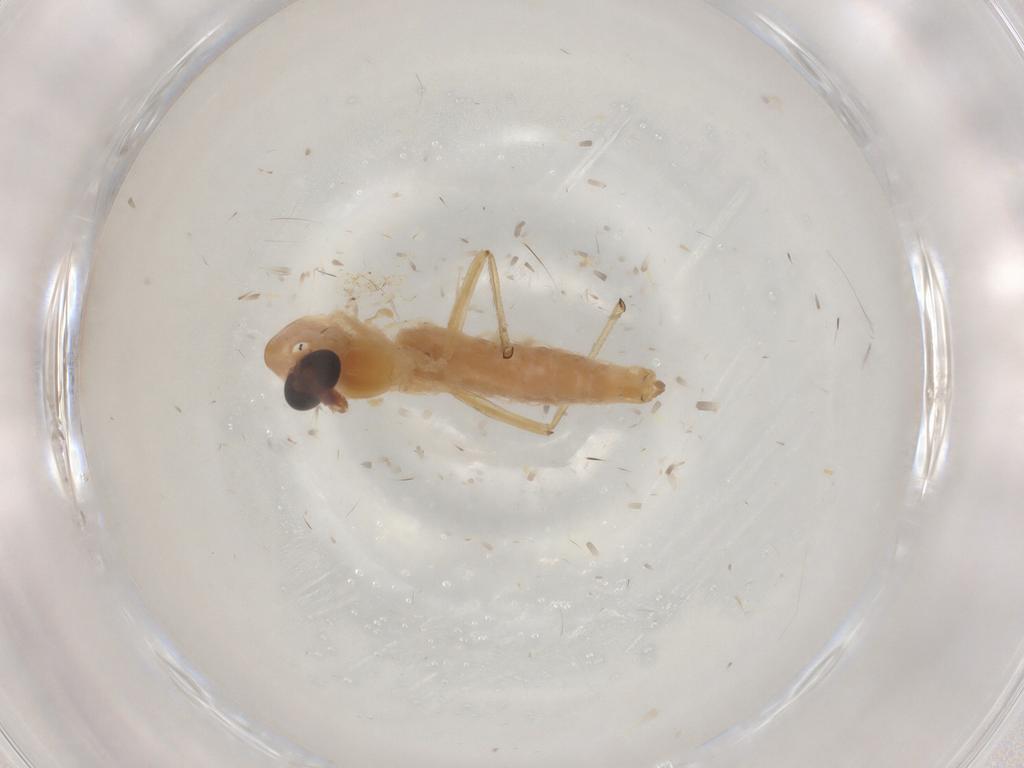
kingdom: Animalia
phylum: Arthropoda
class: Insecta
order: Diptera
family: Chironomidae
